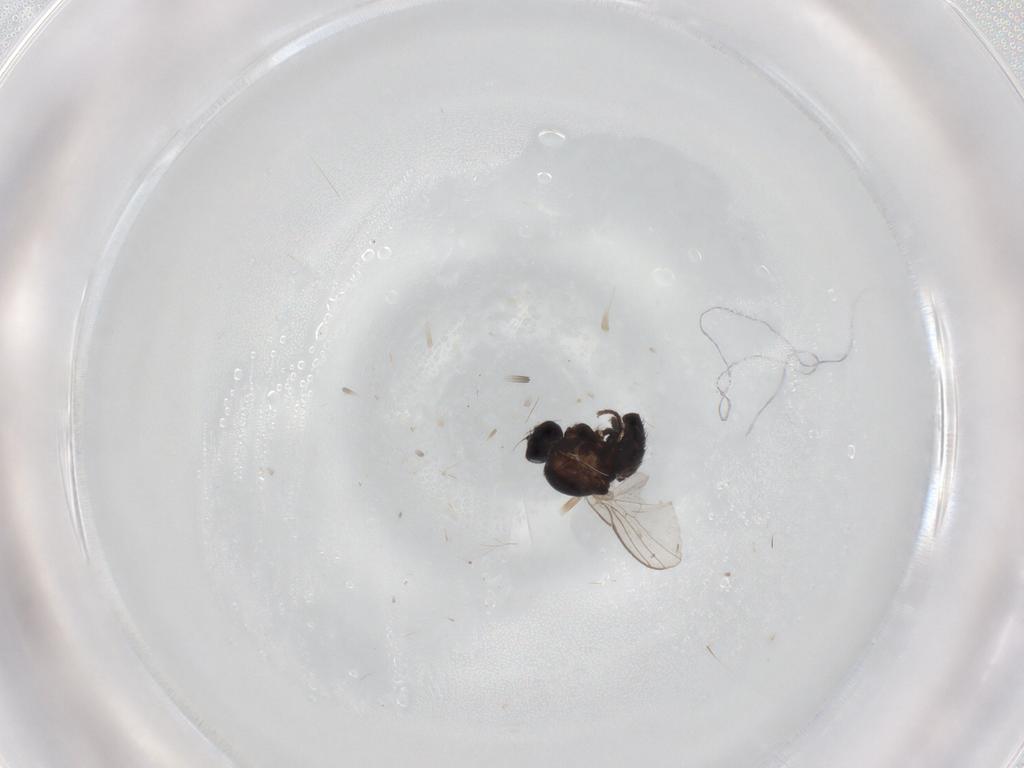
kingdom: Animalia
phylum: Arthropoda
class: Insecta
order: Diptera
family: Agromyzidae
